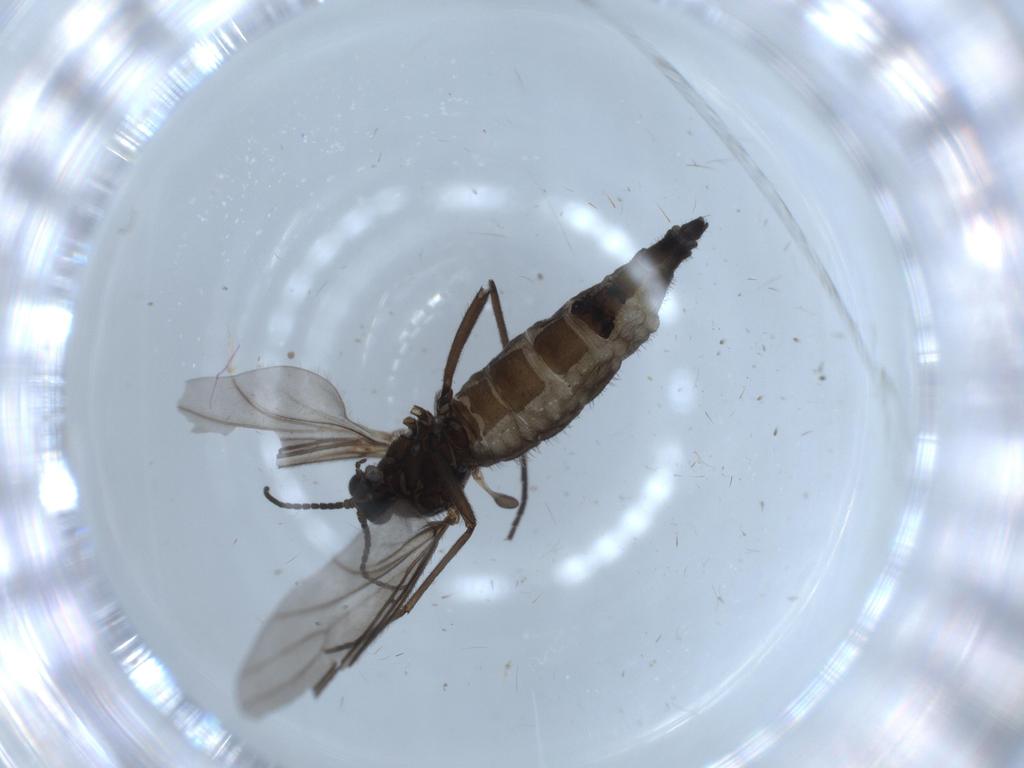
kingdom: Animalia
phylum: Arthropoda
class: Insecta
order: Diptera
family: Sciaridae
